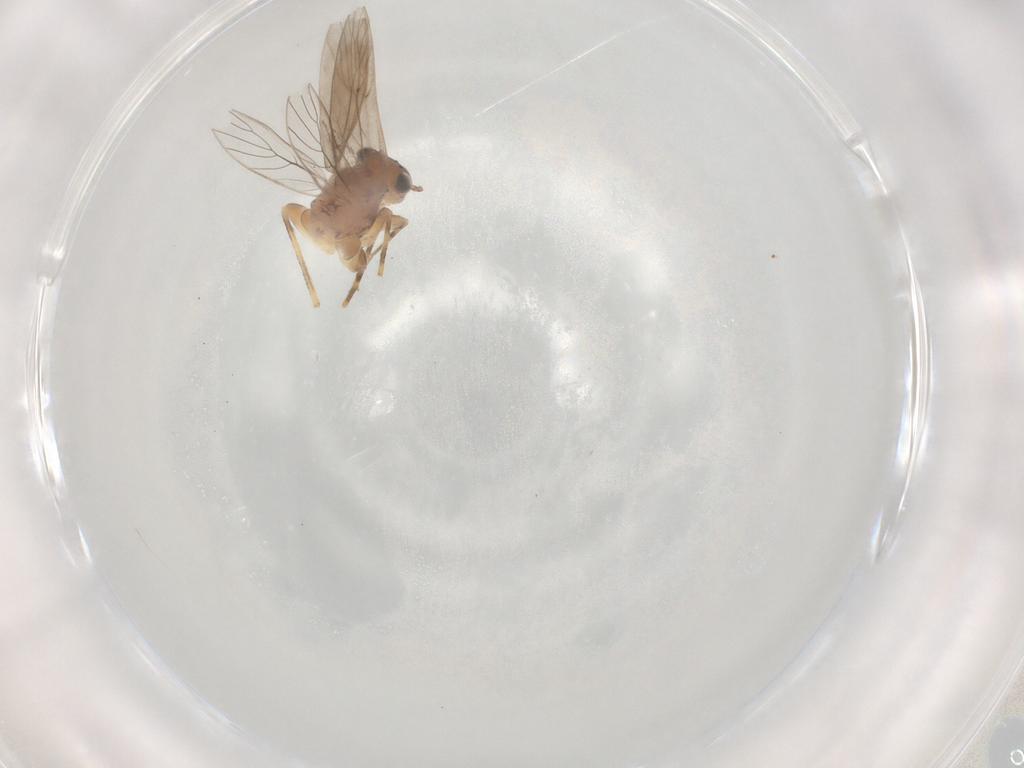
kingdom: Animalia
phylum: Arthropoda
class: Insecta
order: Psocodea
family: Lepidopsocidae
